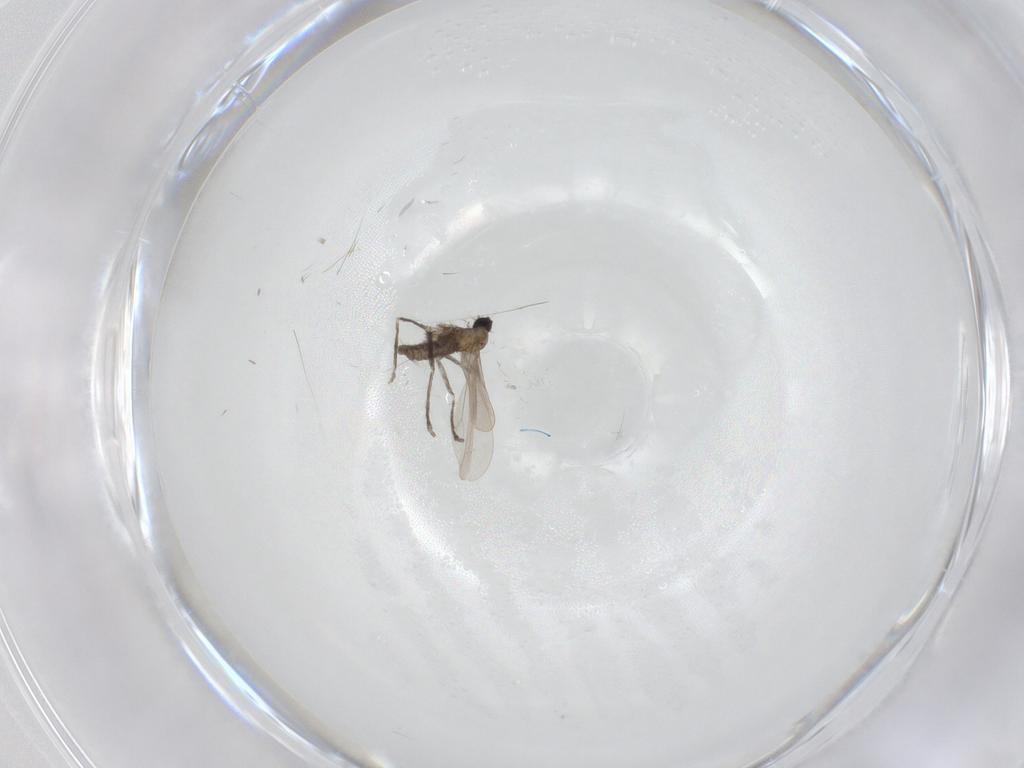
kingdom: Animalia
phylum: Arthropoda
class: Insecta
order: Diptera
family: Cecidomyiidae
